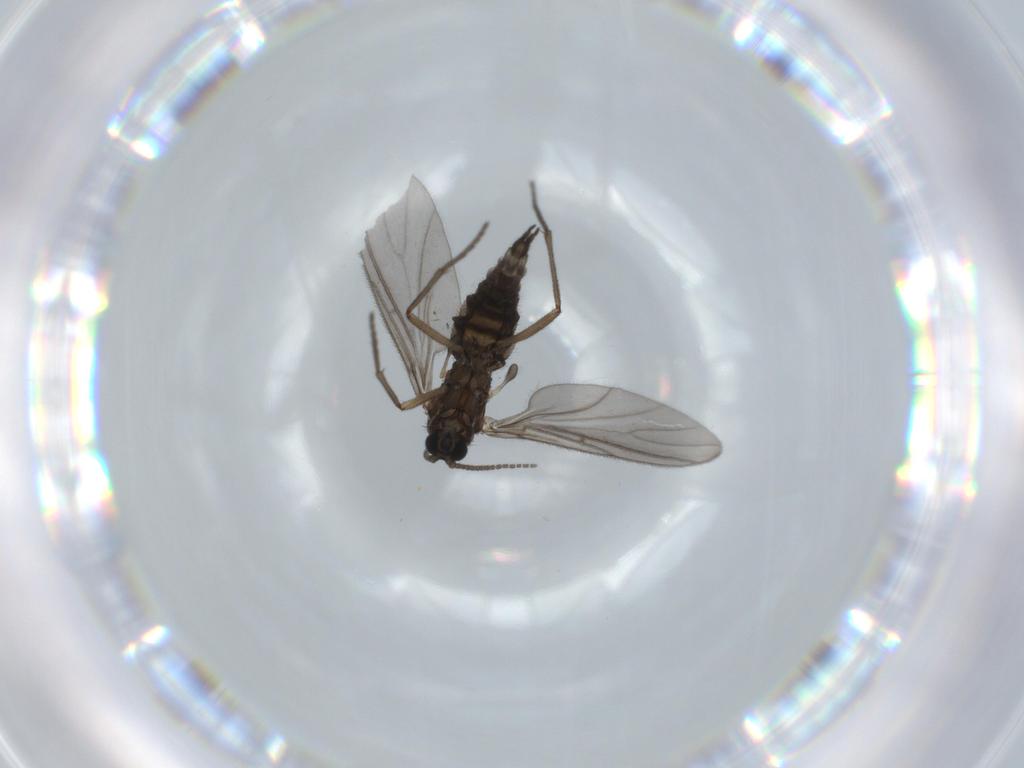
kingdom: Animalia
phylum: Arthropoda
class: Insecta
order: Diptera
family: Sciaridae
